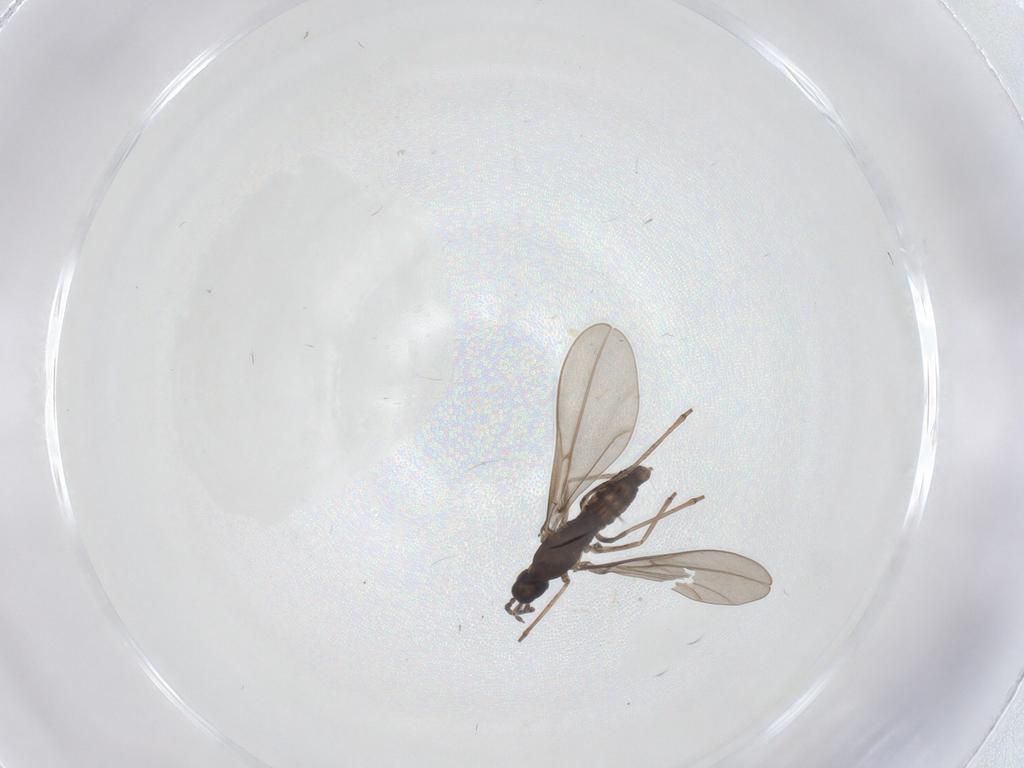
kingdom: Animalia
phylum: Arthropoda
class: Insecta
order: Diptera
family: Cecidomyiidae
